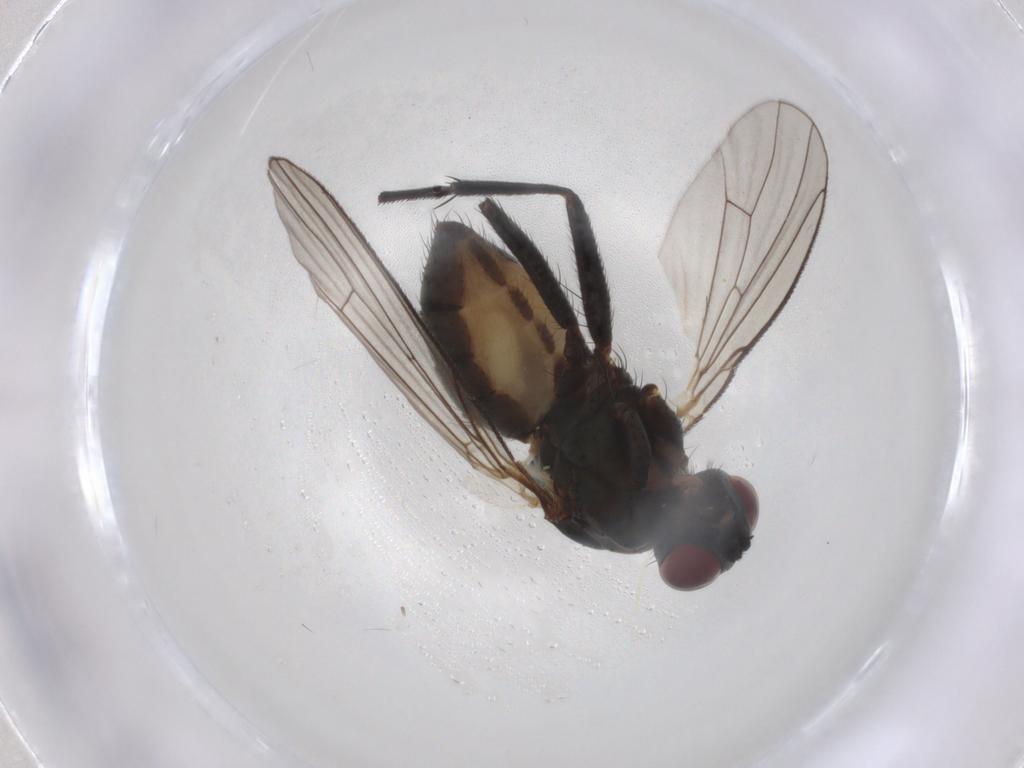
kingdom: Animalia
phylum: Arthropoda
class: Insecta
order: Diptera
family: Muscidae
